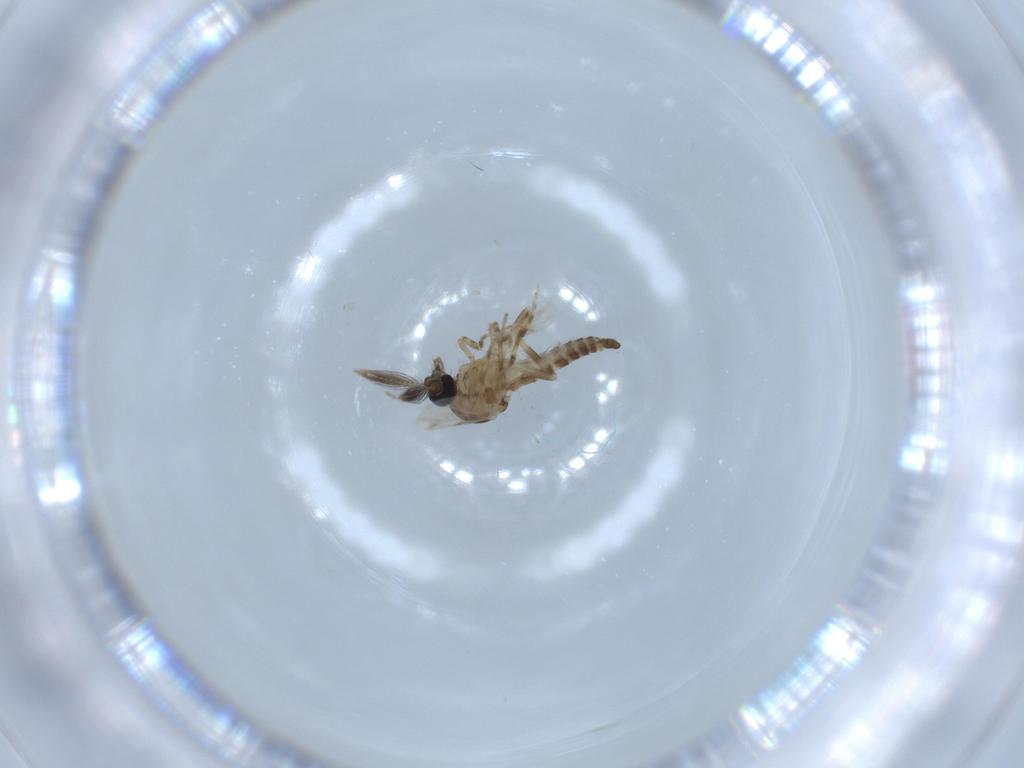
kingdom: Animalia
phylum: Arthropoda
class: Insecta
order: Diptera
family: Ceratopogonidae
